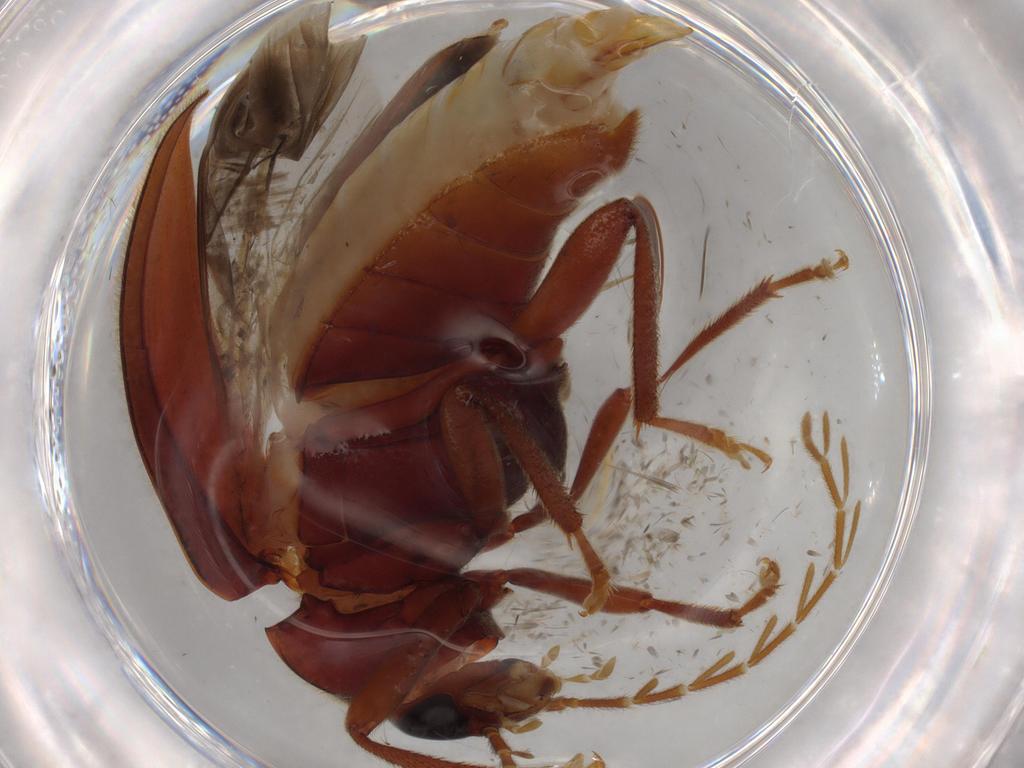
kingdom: Animalia
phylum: Arthropoda
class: Insecta
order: Coleoptera
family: Ptilodactylidae
